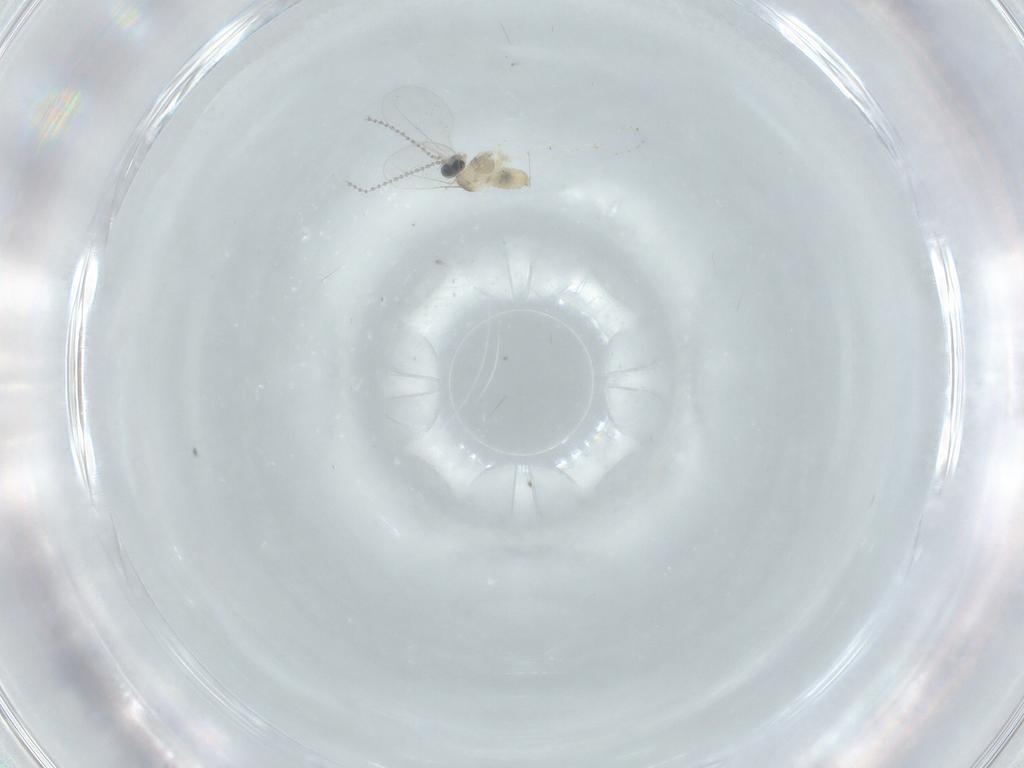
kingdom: Animalia
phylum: Arthropoda
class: Insecta
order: Diptera
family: Cecidomyiidae
